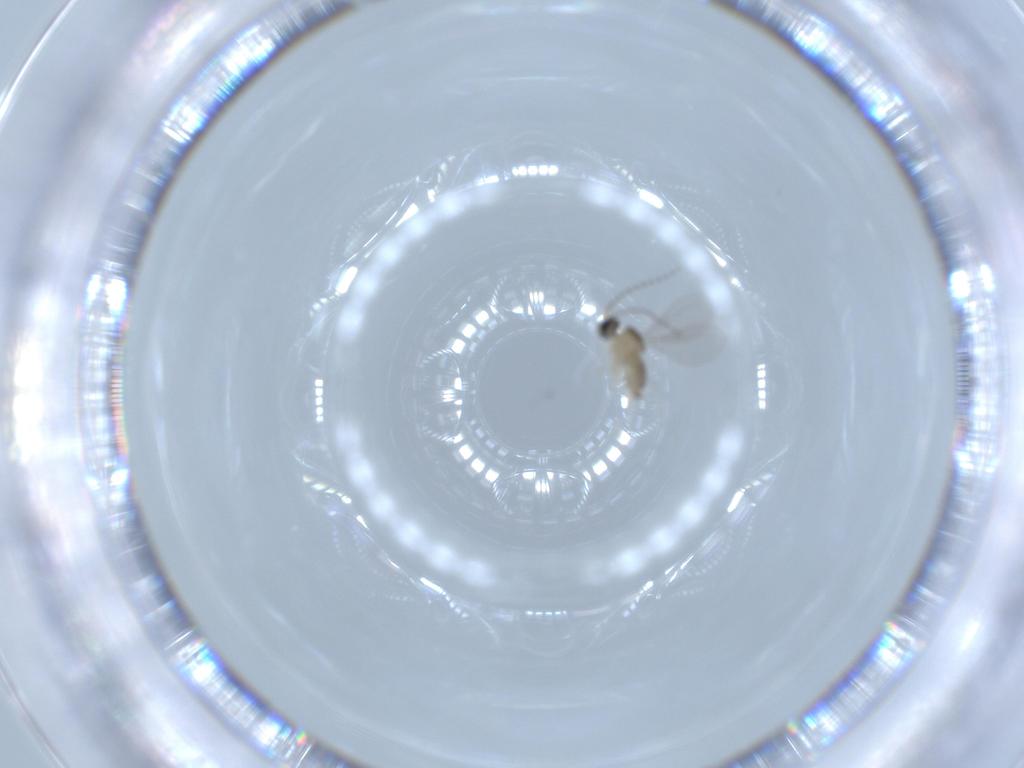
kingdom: Animalia
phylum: Arthropoda
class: Insecta
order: Diptera
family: Cecidomyiidae
